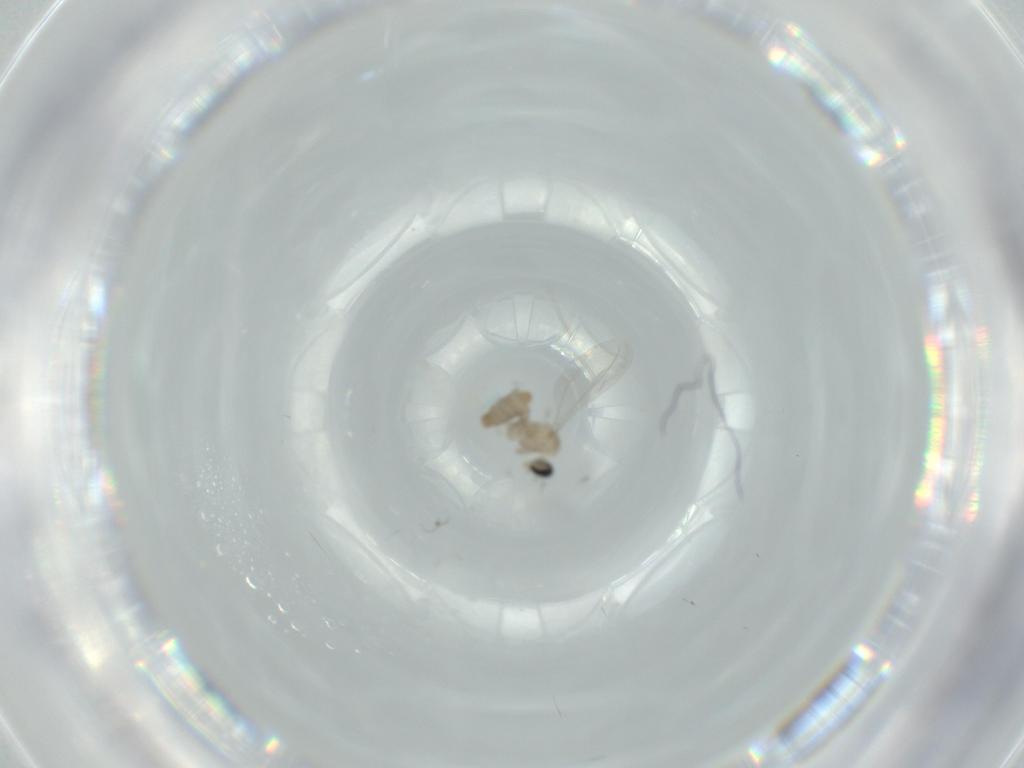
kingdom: Animalia
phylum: Arthropoda
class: Insecta
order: Diptera
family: Cecidomyiidae
